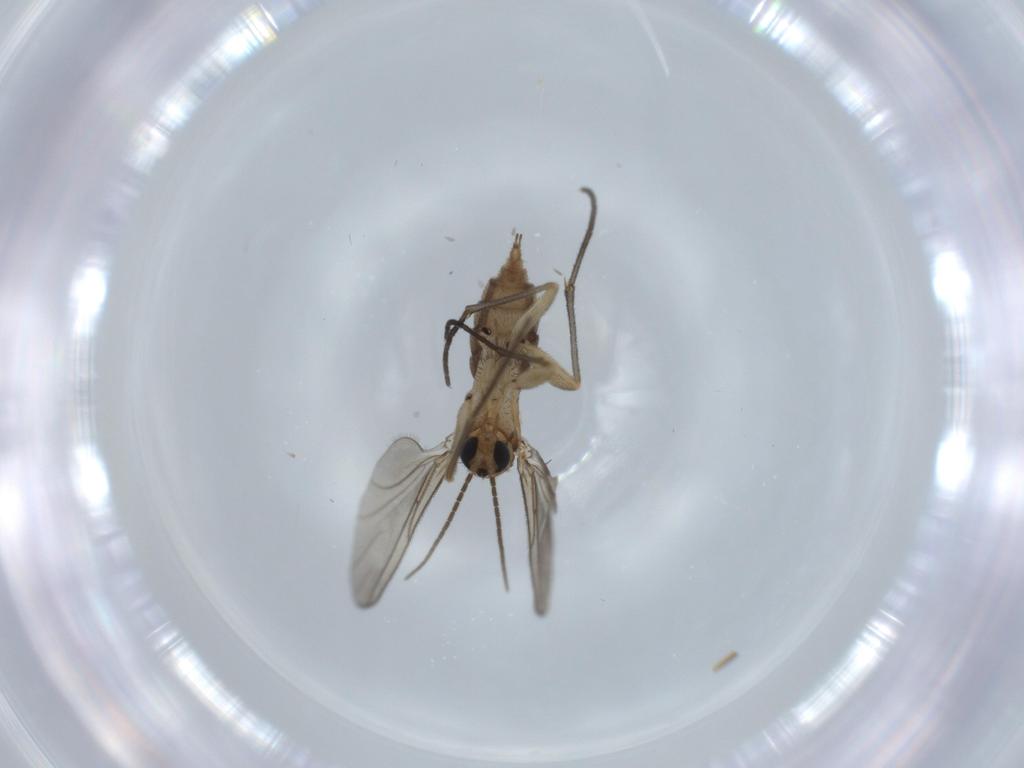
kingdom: Animalia
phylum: Arthropoda
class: Insecta
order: Diptera
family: Sciaridae
